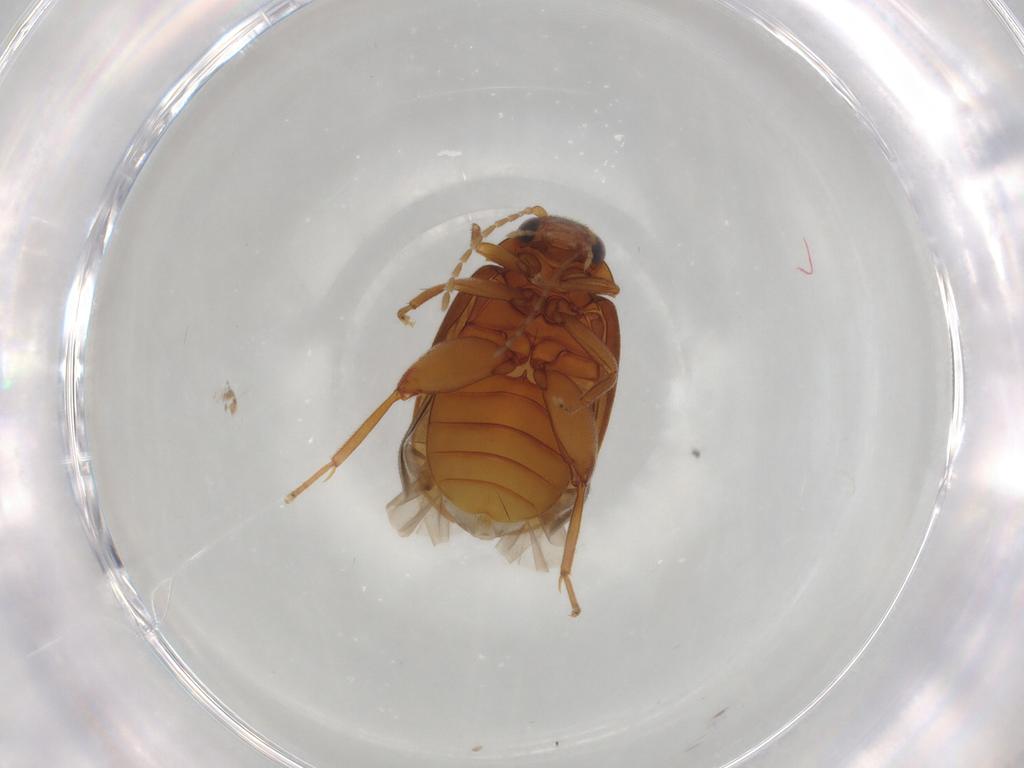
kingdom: Animalia
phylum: Arthropoda
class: Insecta
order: Coleoptera
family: Scirtidae
